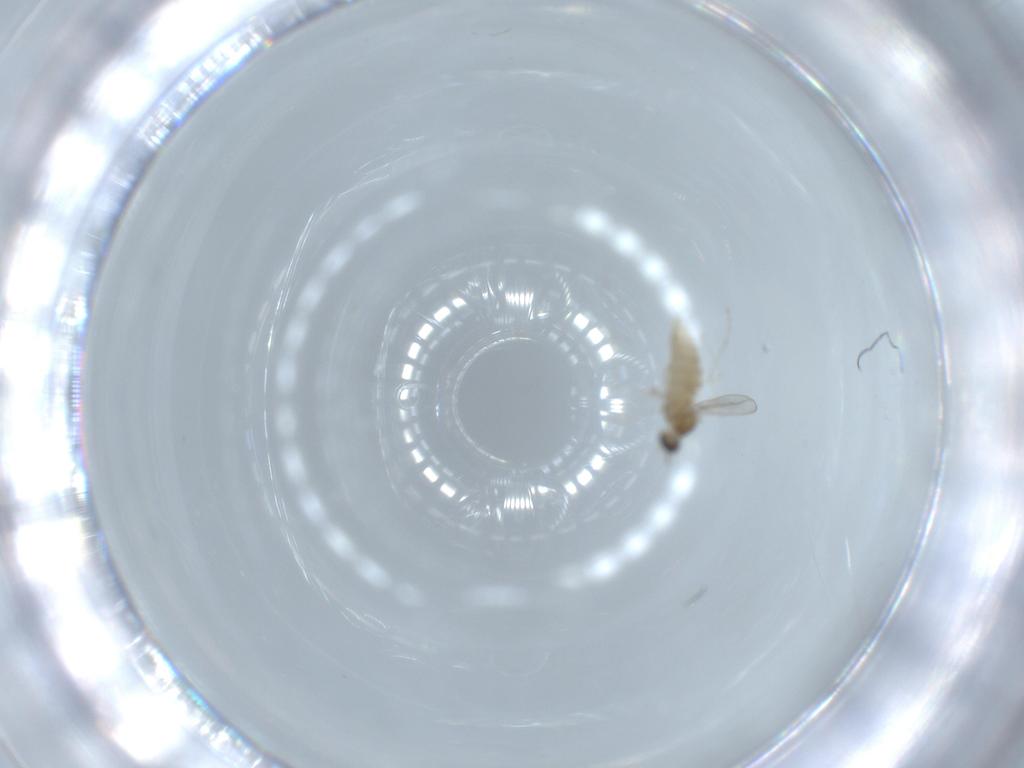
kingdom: Animalia
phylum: Arthropoda
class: Insecta
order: Diptera
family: Cecidomyiidae
